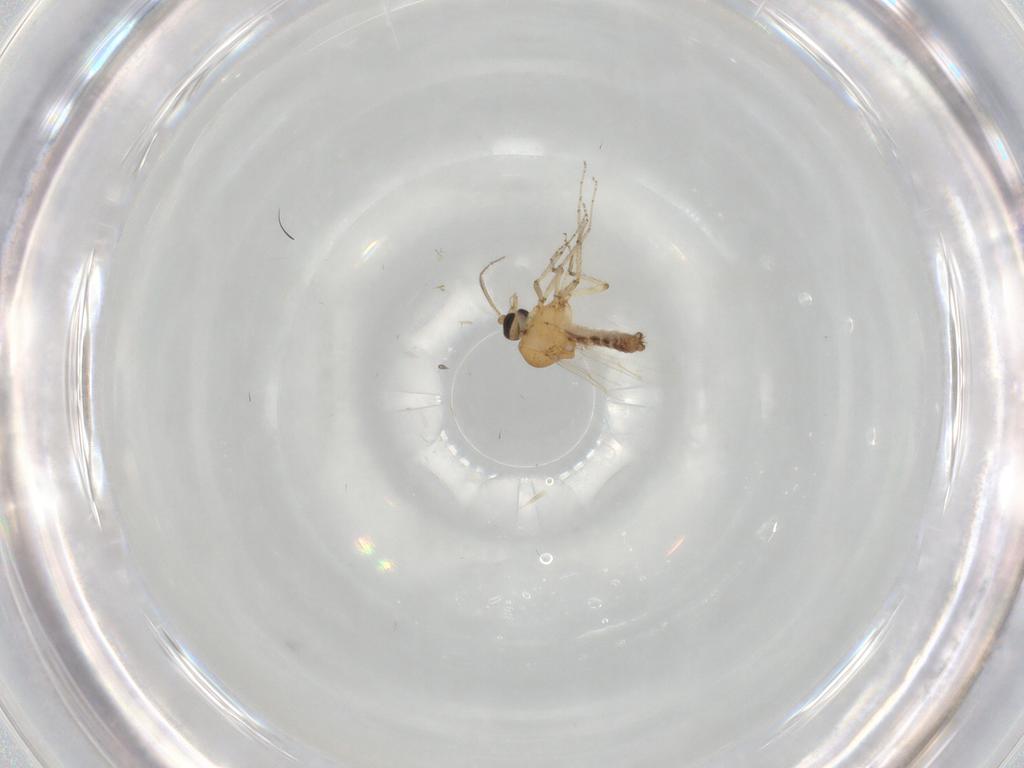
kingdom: Animalia
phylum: Arthropoda
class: Insecta
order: Diptera
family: Ceratopogonidae
